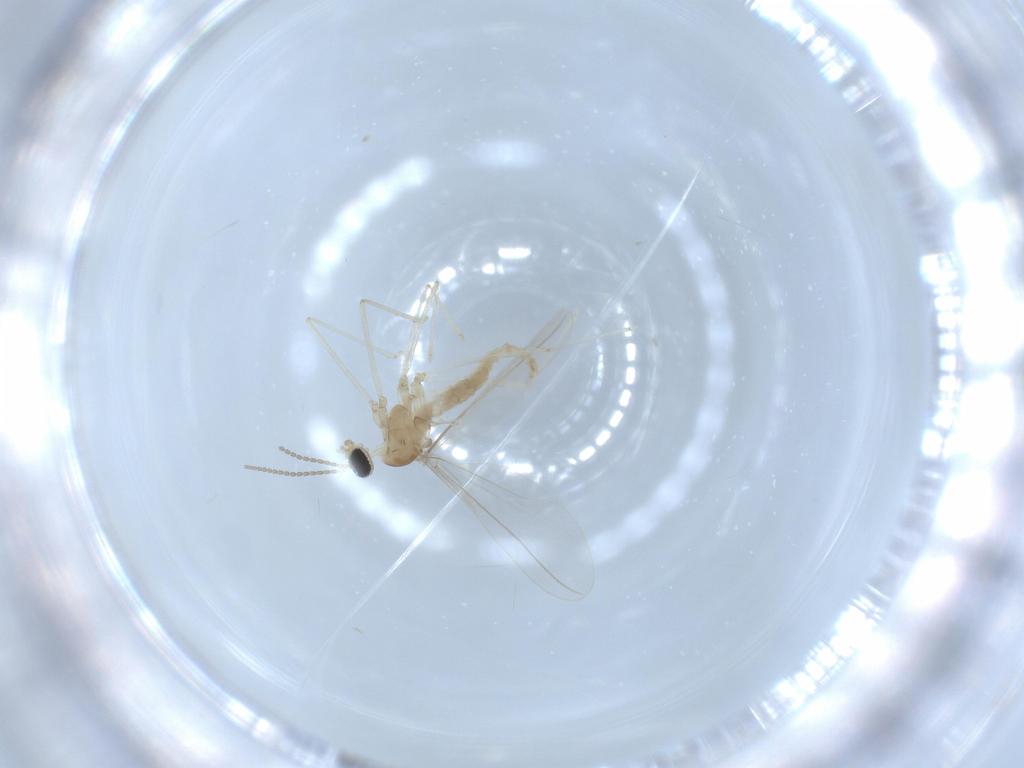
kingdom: Animalia
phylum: Arthropoda
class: Insecta
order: Diptera
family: Cecidomyiidae
